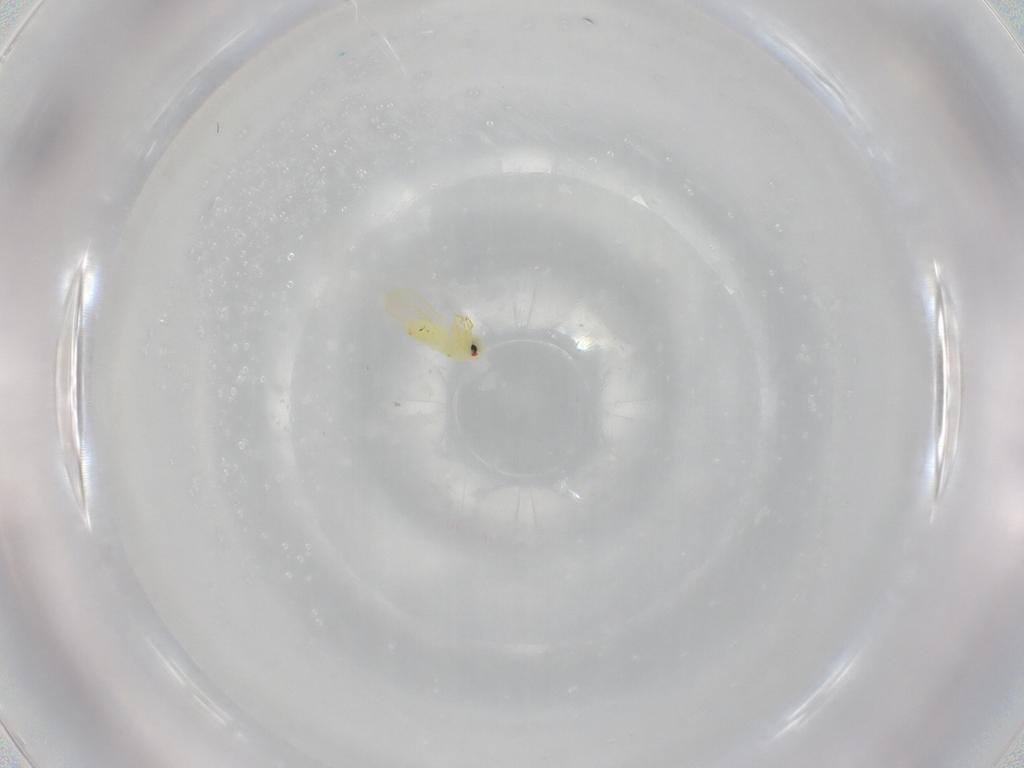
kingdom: Animalia
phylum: Arthropoda
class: Insecta
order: Hemiptera
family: Aleyrodidae
